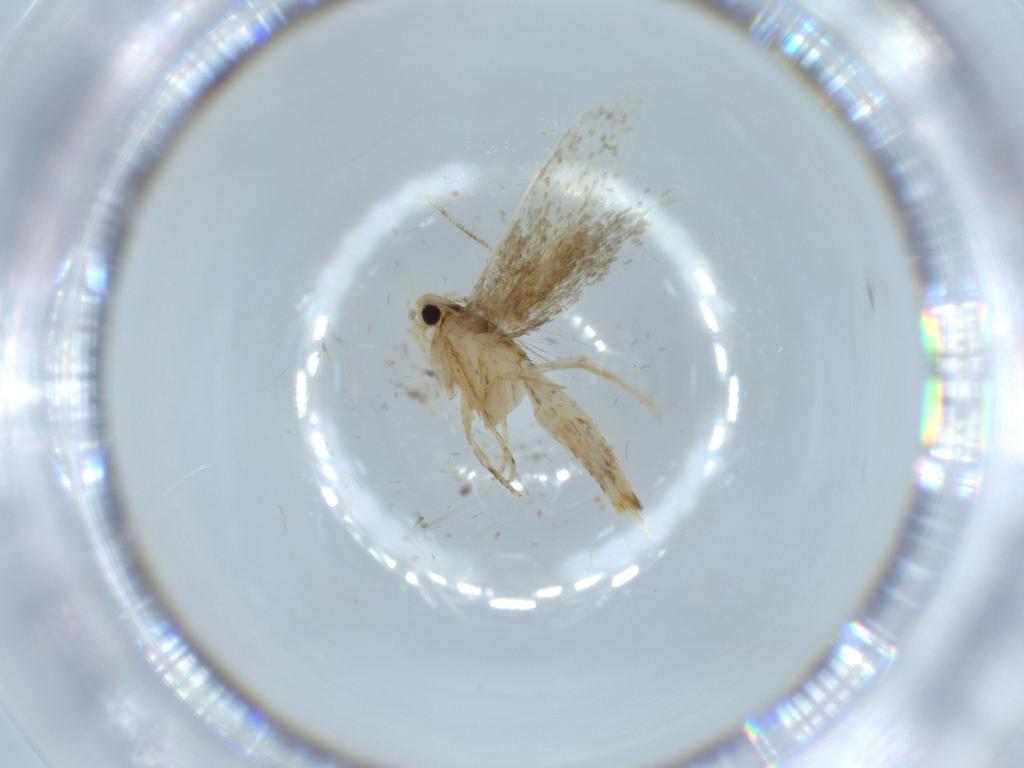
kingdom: Animalia
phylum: Arthropoda
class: Insecta
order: Lepidoptera
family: Tineidae
